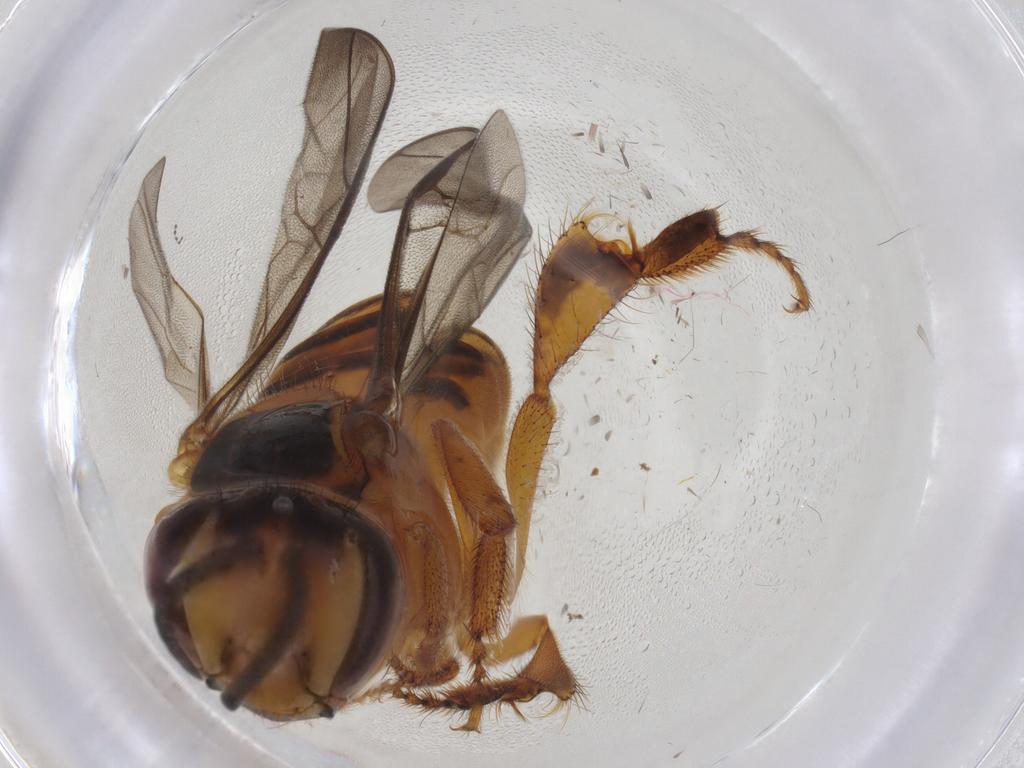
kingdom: Animalia
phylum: Arthropoda
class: Insecta
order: Hymenoptera
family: Apidae
